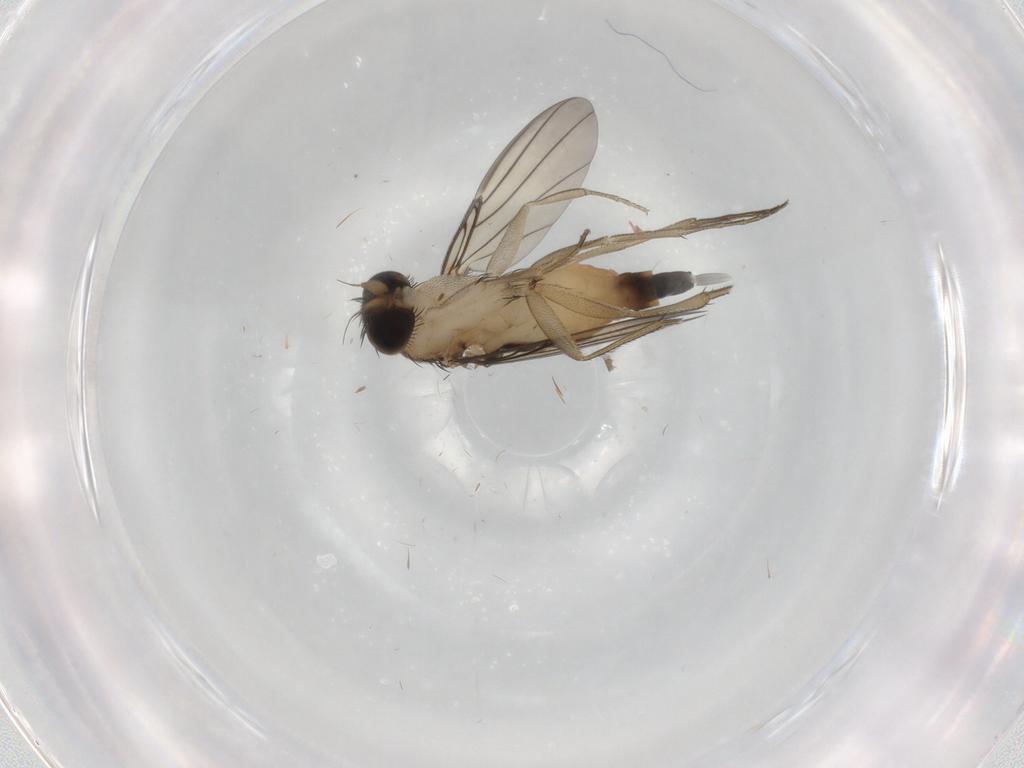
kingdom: Animalia
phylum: Arthropoda
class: Insecta
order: Diptera
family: Phoridae
